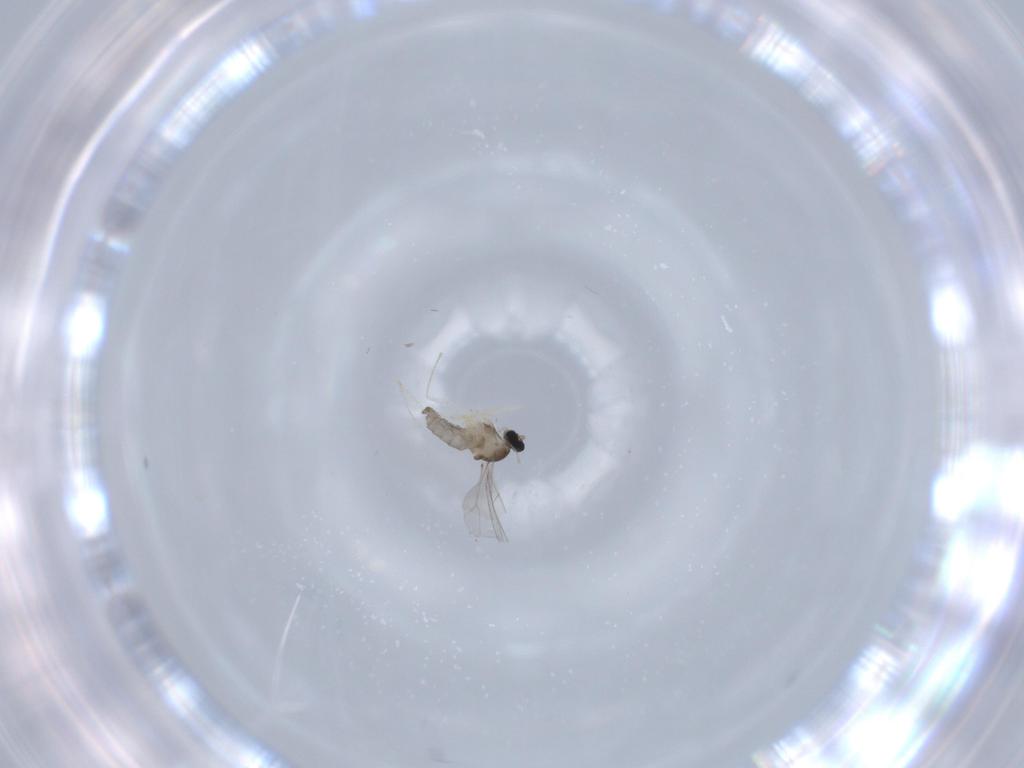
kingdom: Animalia
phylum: Arthropoda
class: Insecta
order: Diptera
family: Cecidomyiidae
